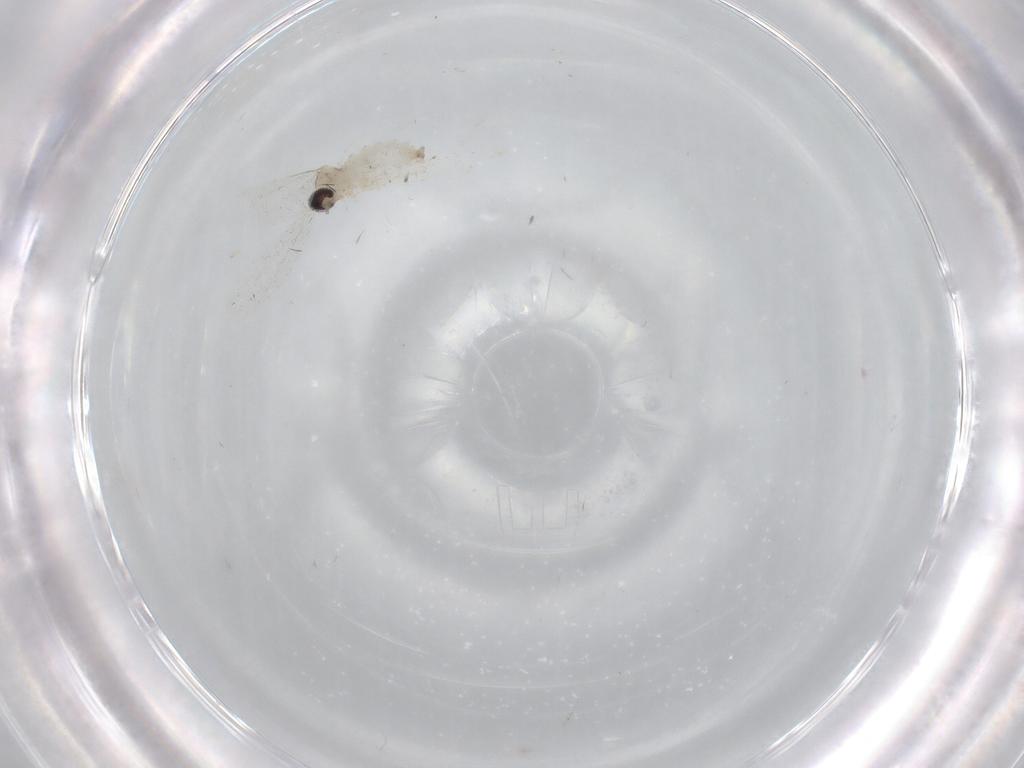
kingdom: Animalia
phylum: Arthropoda
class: Insecta
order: Diptera
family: Cecidomyiidae
